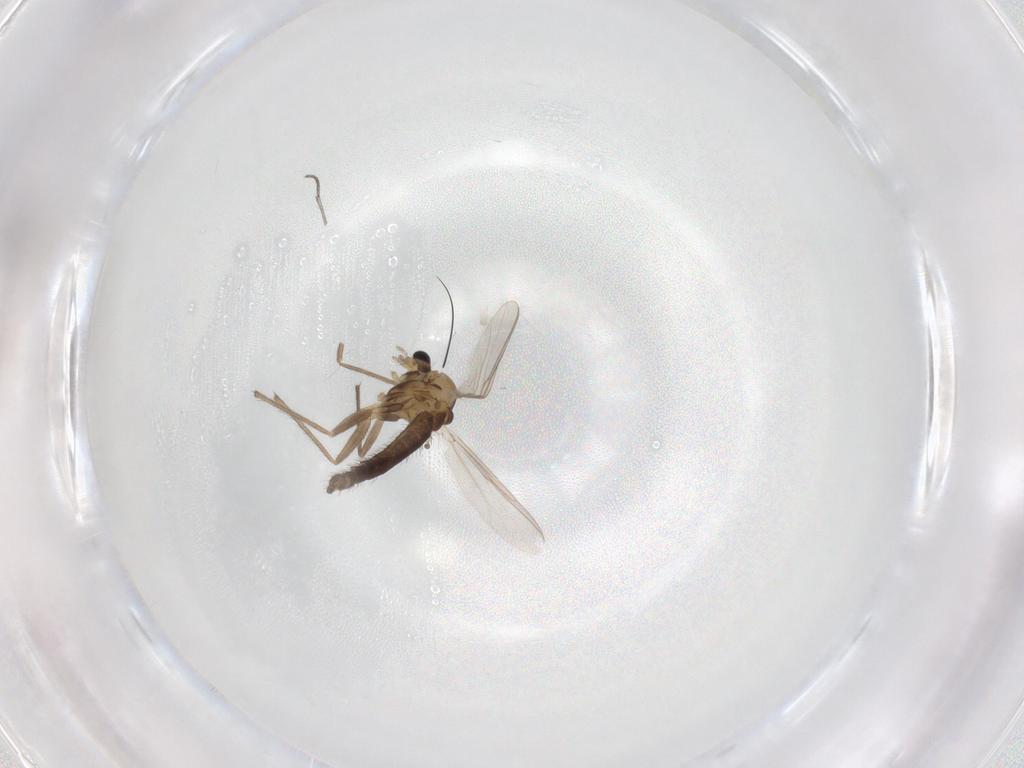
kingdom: Animalia
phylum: Arthropoda
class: Insecta
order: Diptera
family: Chironomidae
